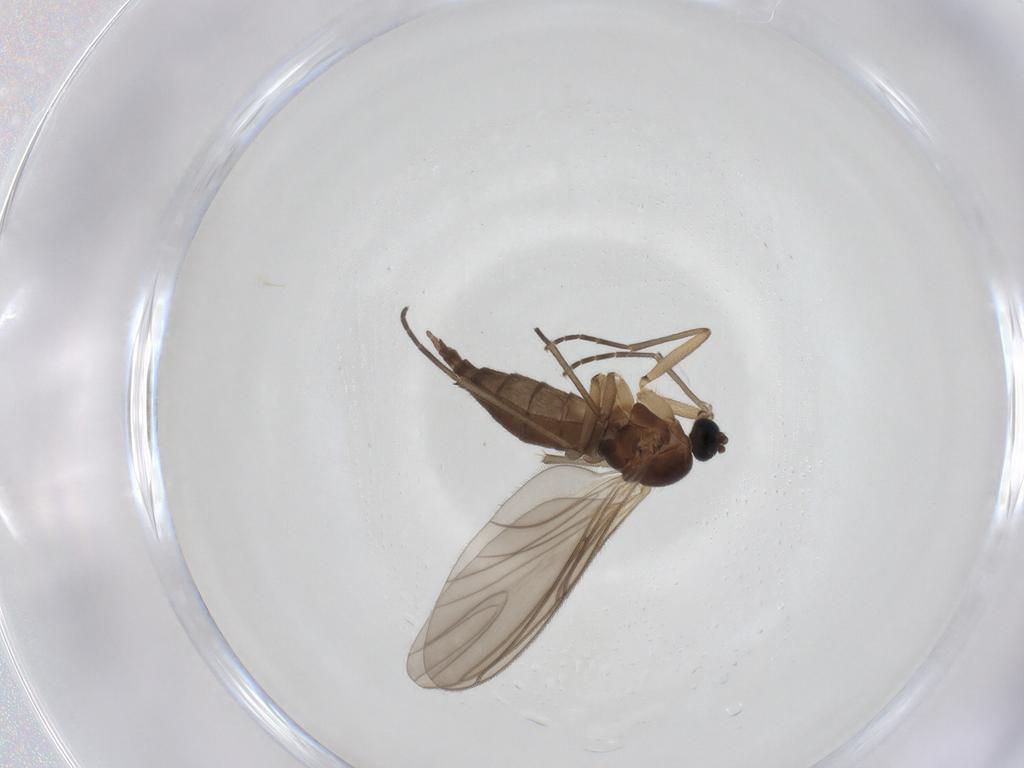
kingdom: Animalia
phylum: Arthropoda
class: Insecta
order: Diptera
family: Sciaridae
